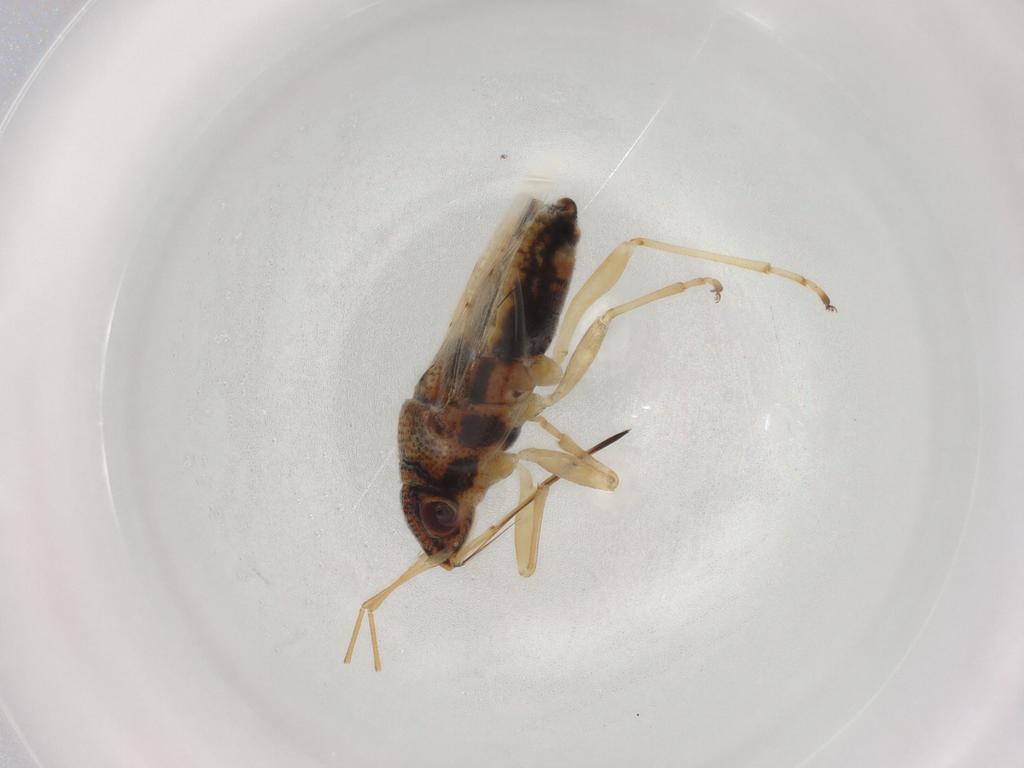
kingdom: Animalia
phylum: Arthropoda
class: Insecta
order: Hemiptera
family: Lygaeidae
